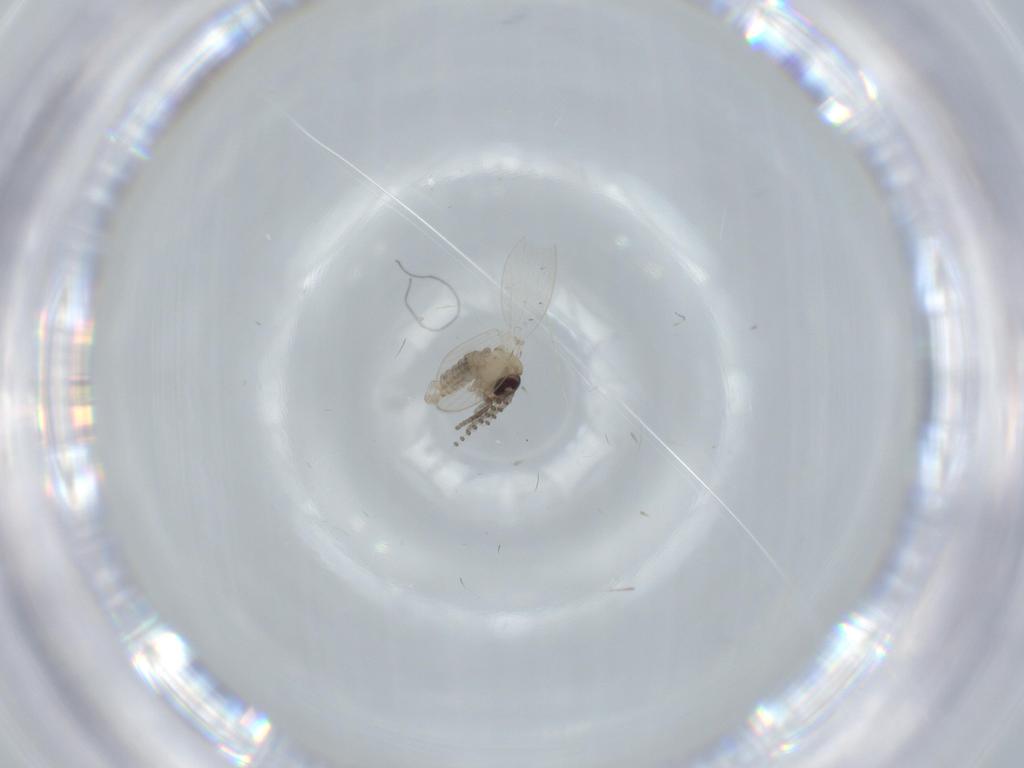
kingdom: Animalia
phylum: Arthropoda
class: Insecta
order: Diptera
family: Psychodidae
